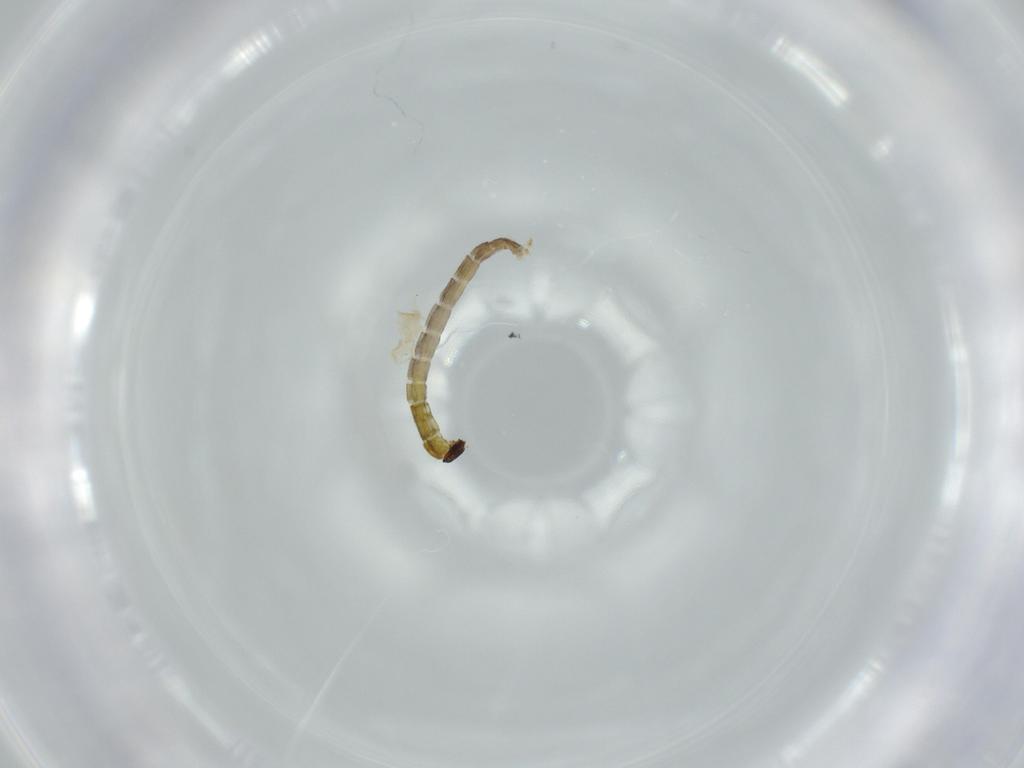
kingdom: Animalia
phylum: Arthropoda
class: Insecta
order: Diptera
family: Chironomidae
